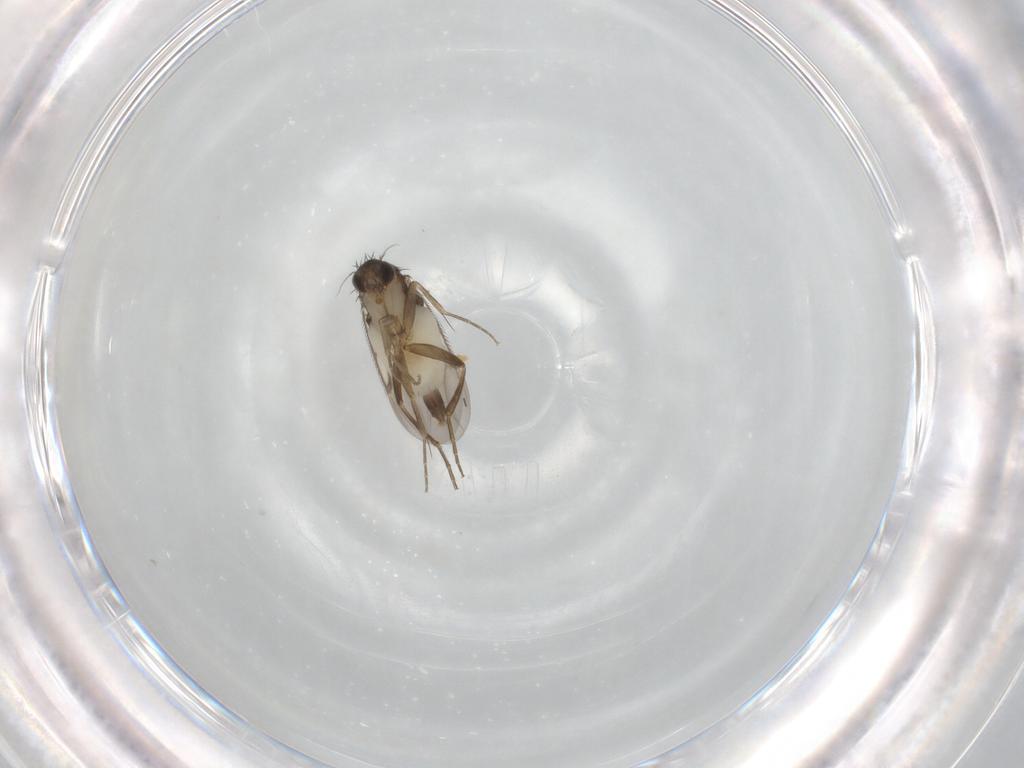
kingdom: Animalia
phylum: Arthropoda
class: Insecta
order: Diptera
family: Phoridae
